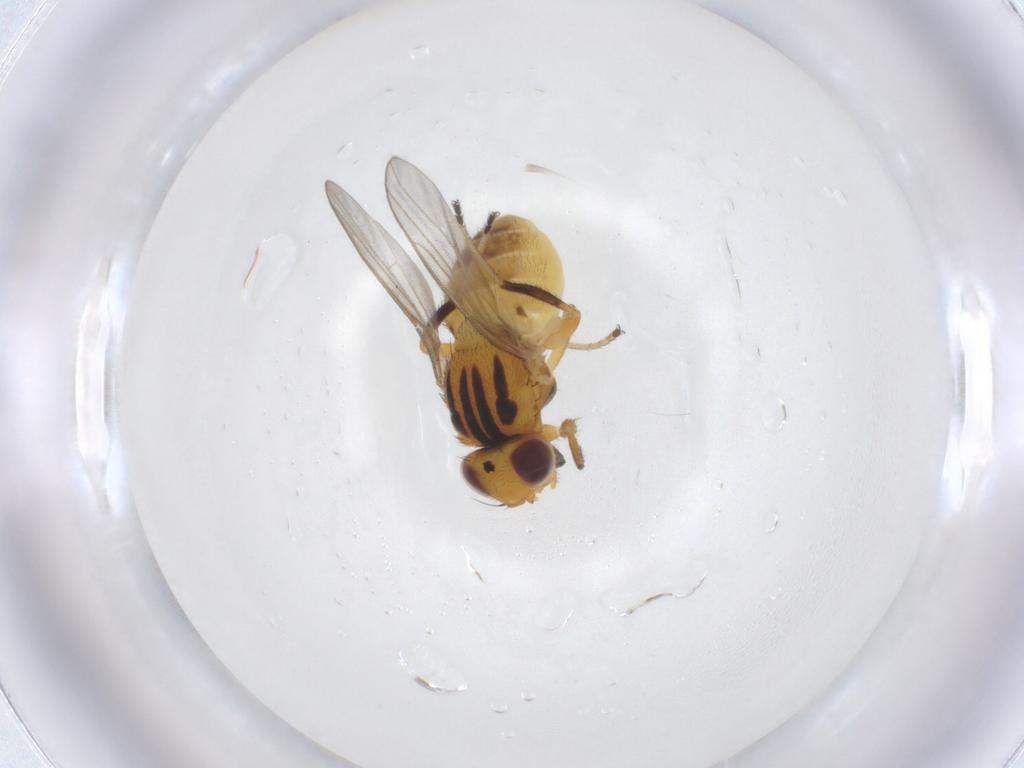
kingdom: Animalia
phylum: Arthropoda
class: Insecta
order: Diptera
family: Chloropidae
